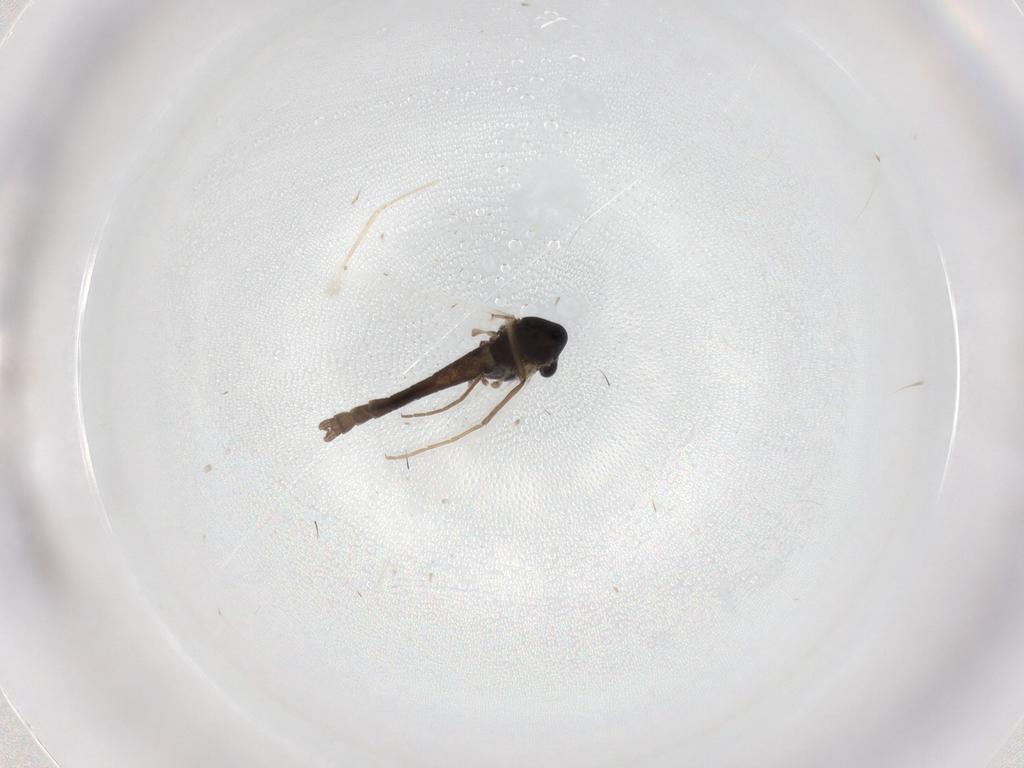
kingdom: Animalia
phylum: Arthropoda
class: Insecta
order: Diptera
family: Chironomidae
